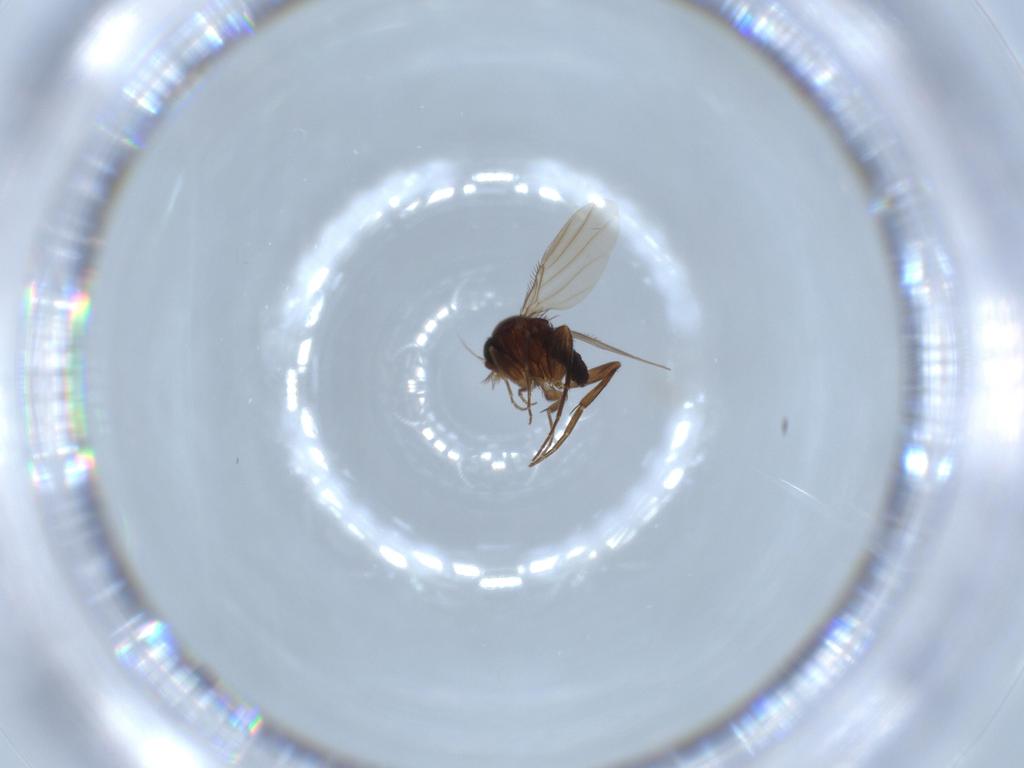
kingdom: Animalia
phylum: Arthropoda
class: Insecta
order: Diptera
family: Phoridae
